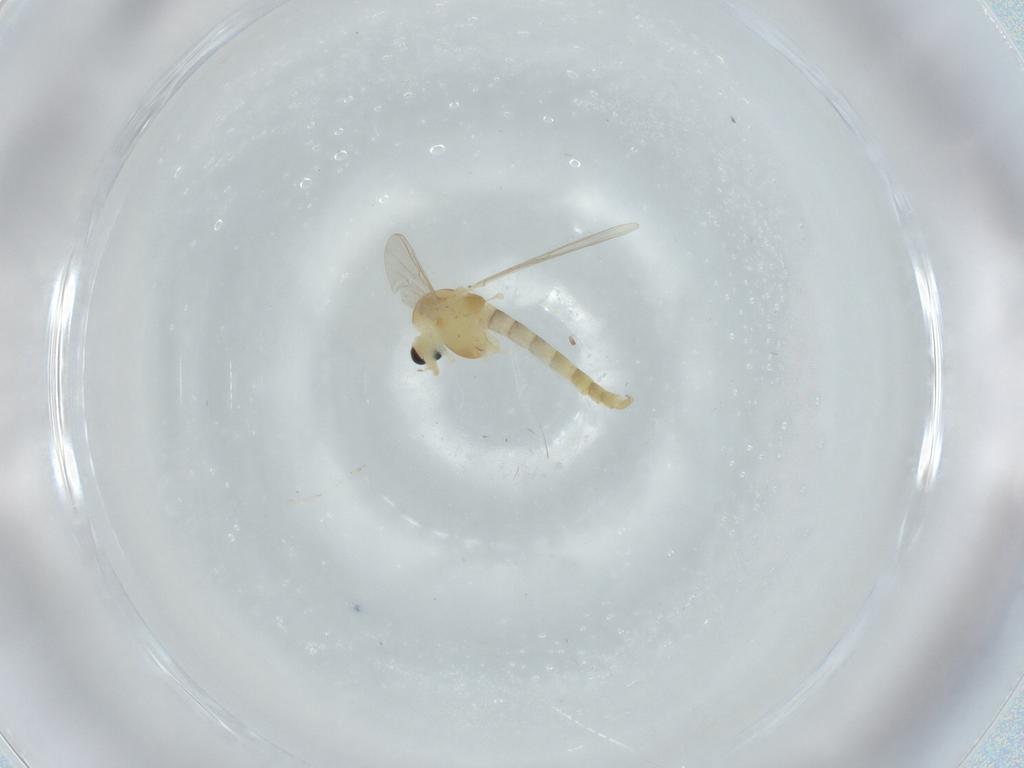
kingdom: Animalia
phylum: Arthropoda
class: Insecta
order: Diptera
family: Chironomidae
